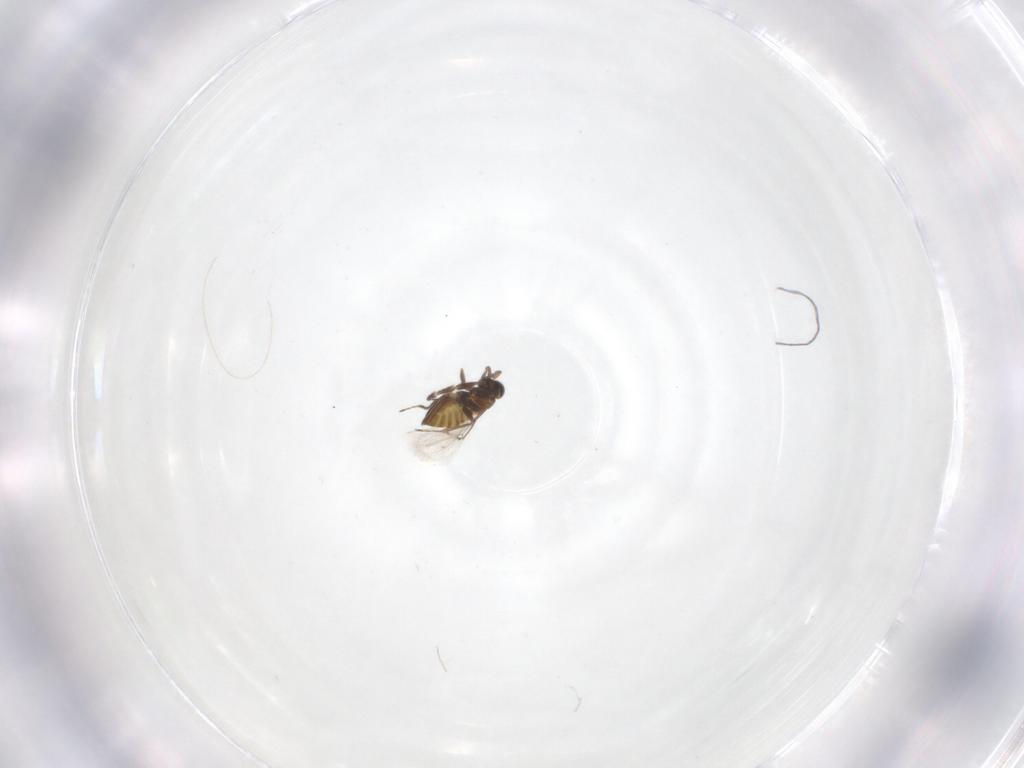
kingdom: Animalia
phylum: Arthropoda
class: Insecta
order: Hymenoptera
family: Trichogrammatidae
